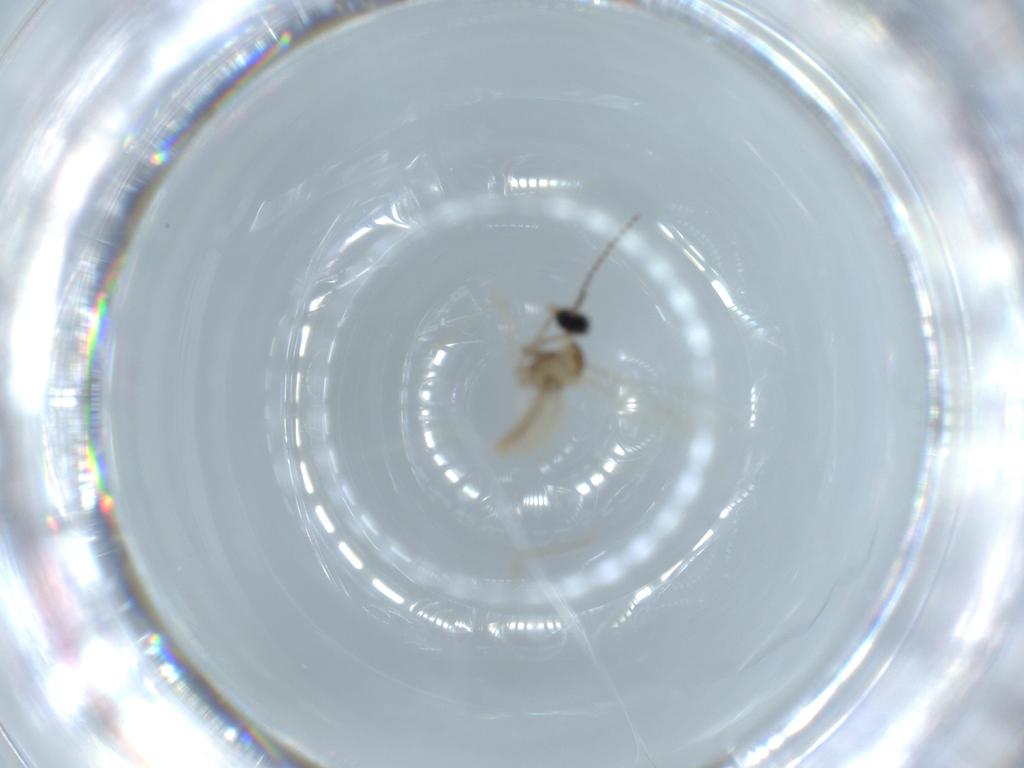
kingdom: Animalia
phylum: Arthropoda
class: Insecta
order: Diptera
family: Cecidomyiidae
